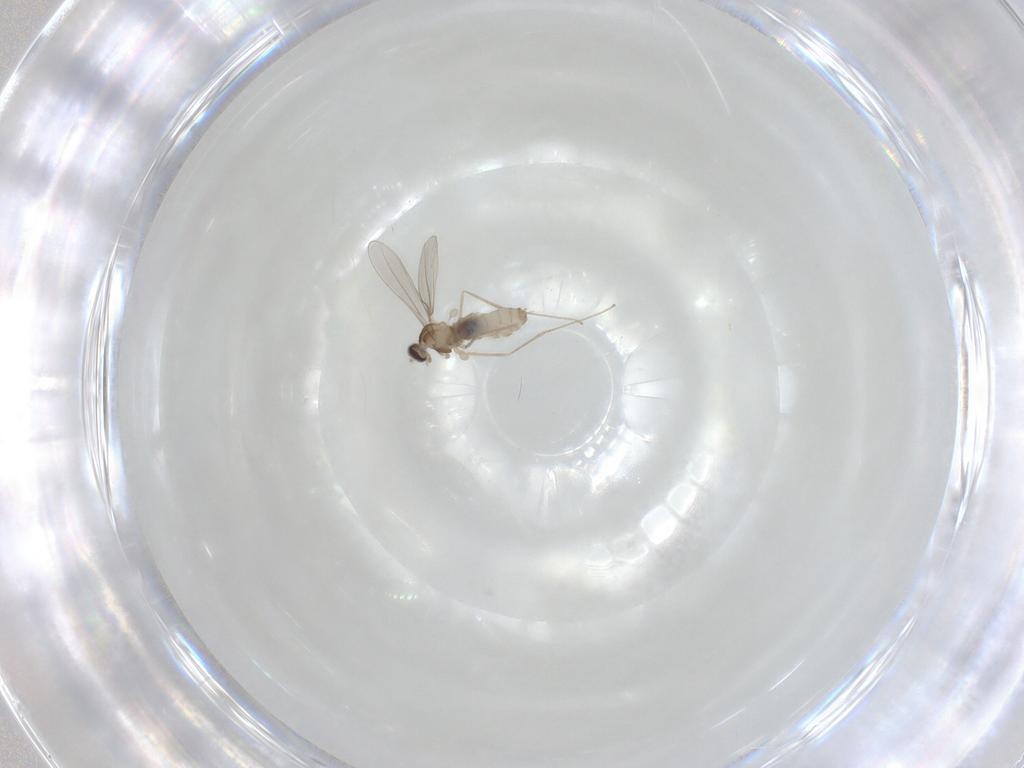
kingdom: Animalia
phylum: Arthropoda
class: Insecta
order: Diptera
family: Cecidomyiidae
